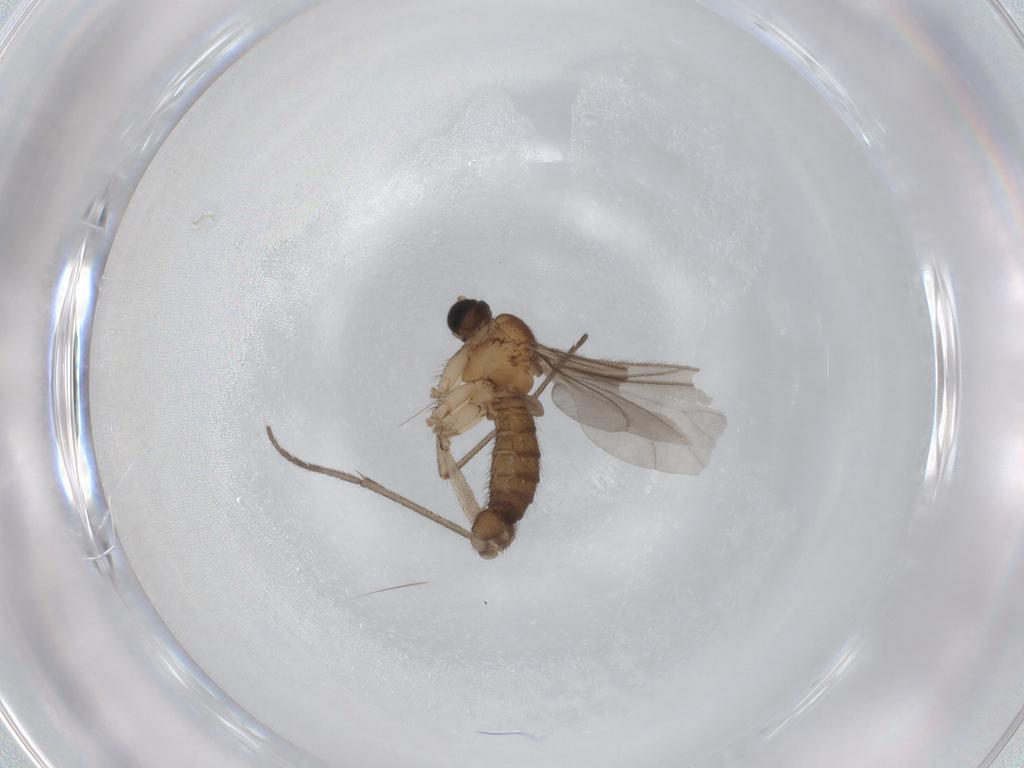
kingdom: Animalia
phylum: Arthropoda
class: Insecta
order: Diptera
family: Sciaridae
